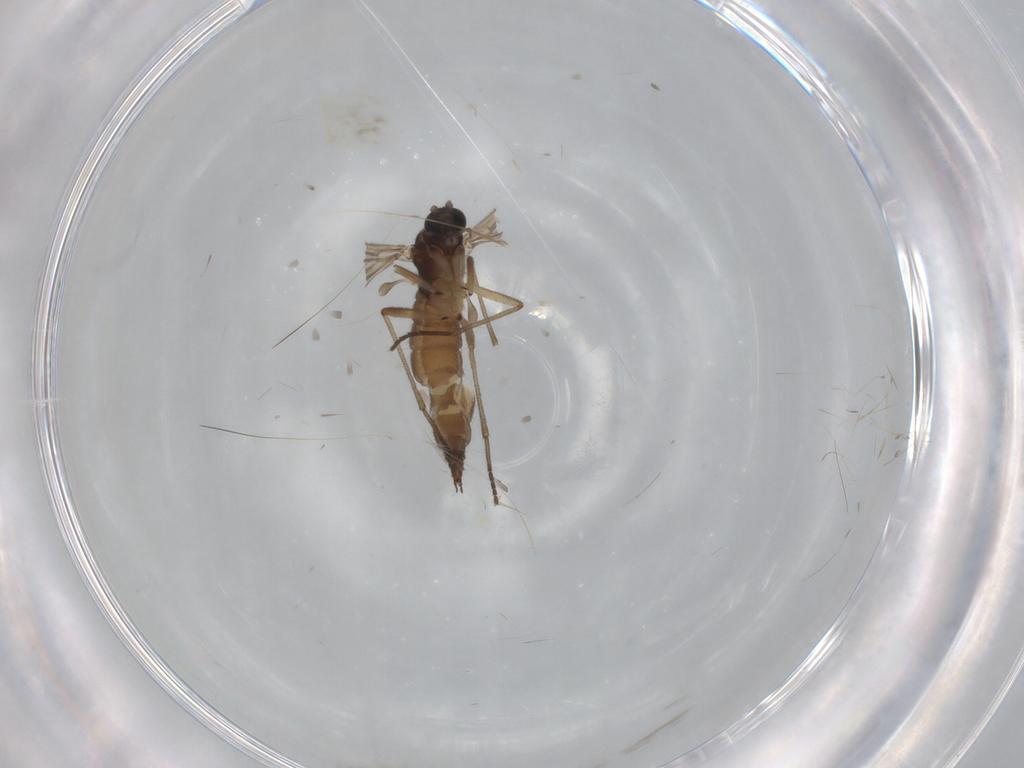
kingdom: Animalia
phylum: Arthropoda
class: Insecta
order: Diptera
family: Sciaridae
